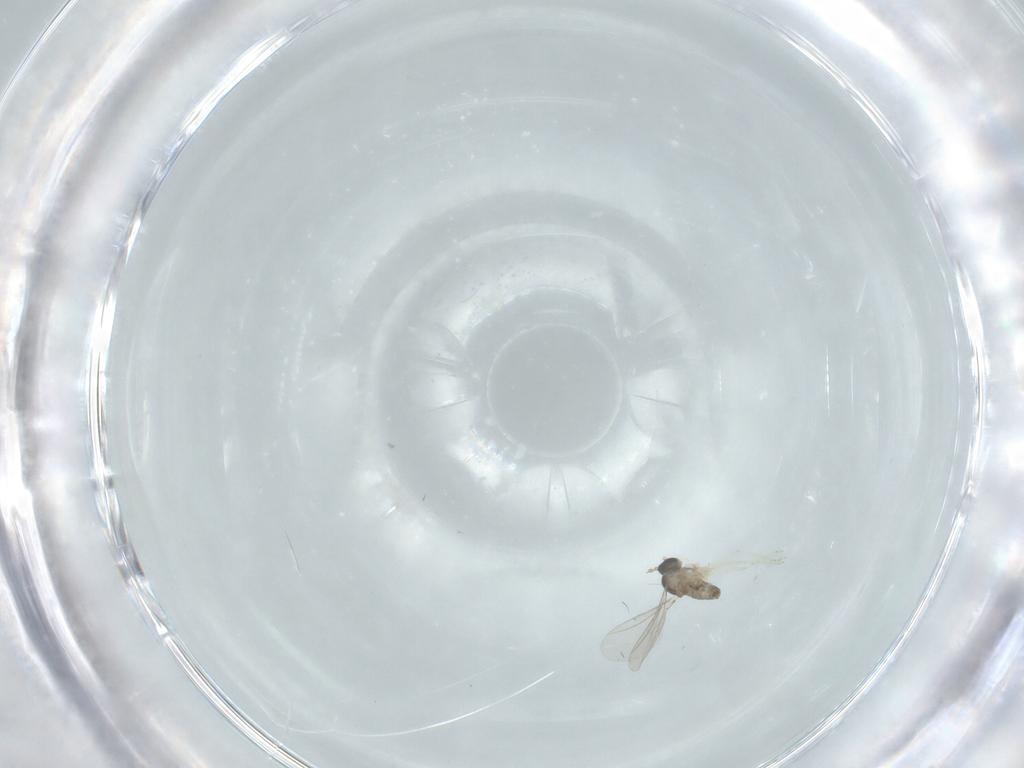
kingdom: Animalia
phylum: Arthropoda
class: Insecta
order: Diptera
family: Cecidomyiidae
